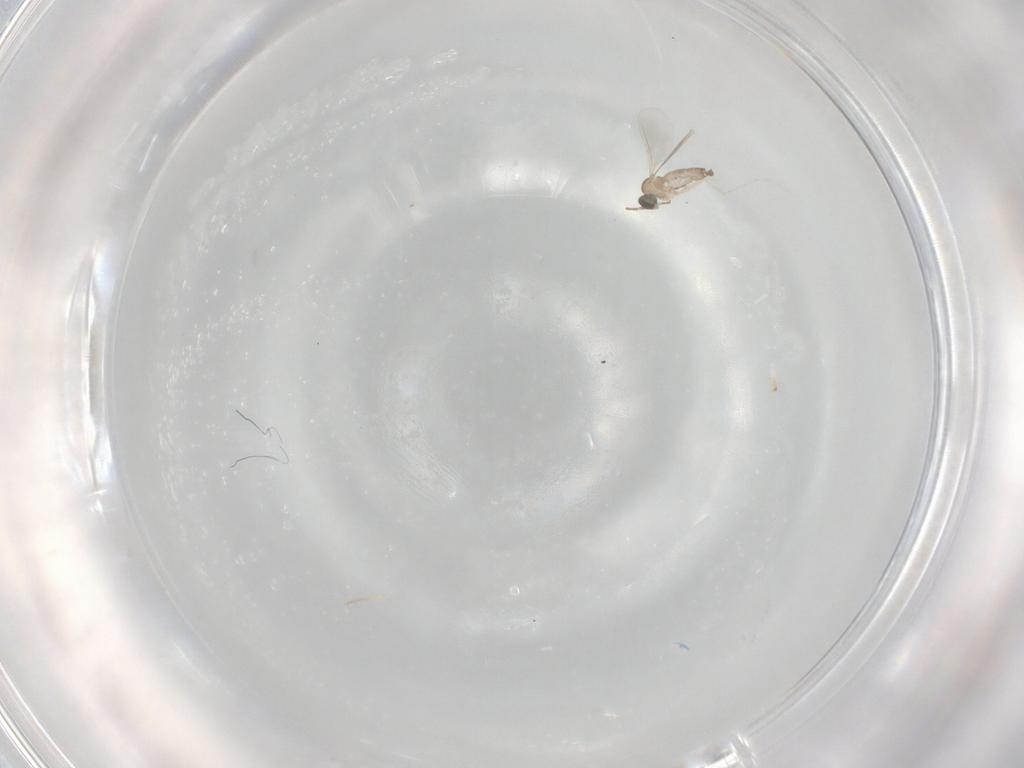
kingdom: Animalia
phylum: Arthropoda
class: Insecta
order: Diptera
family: Cecidomyiidae
